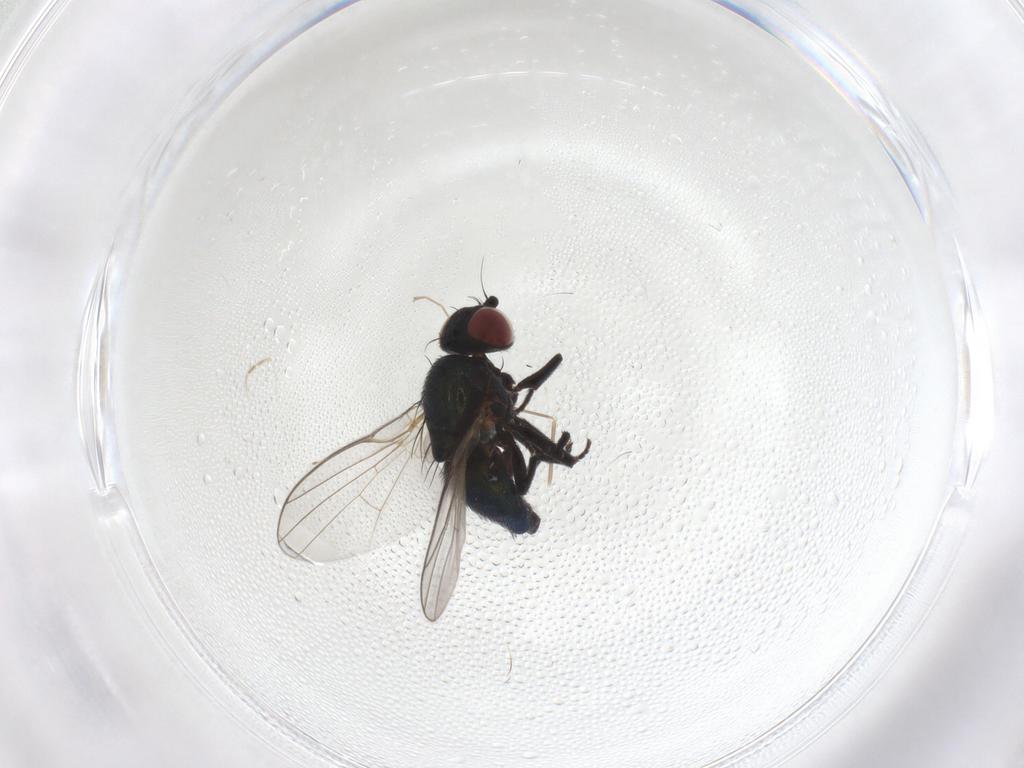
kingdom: Animalia
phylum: Arthropoda
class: Insecta
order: Diptera
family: Agromyzidae
